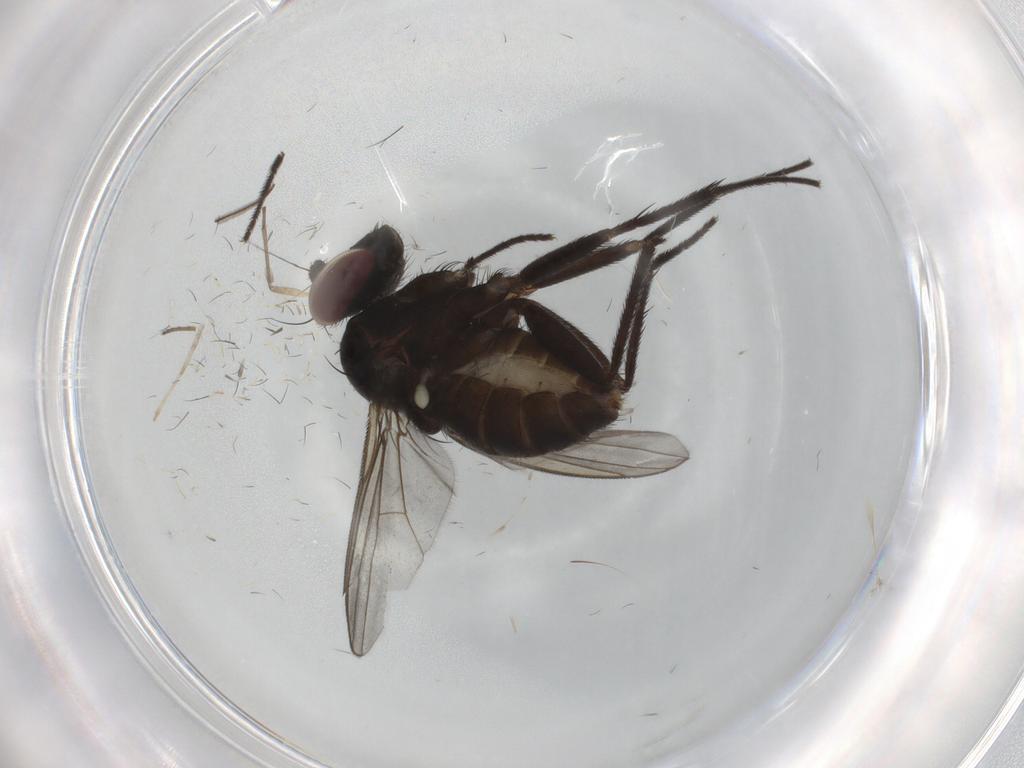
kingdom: Animalia
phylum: Arthropoda
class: Insecta
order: Diptera
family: Dolichopodidae
